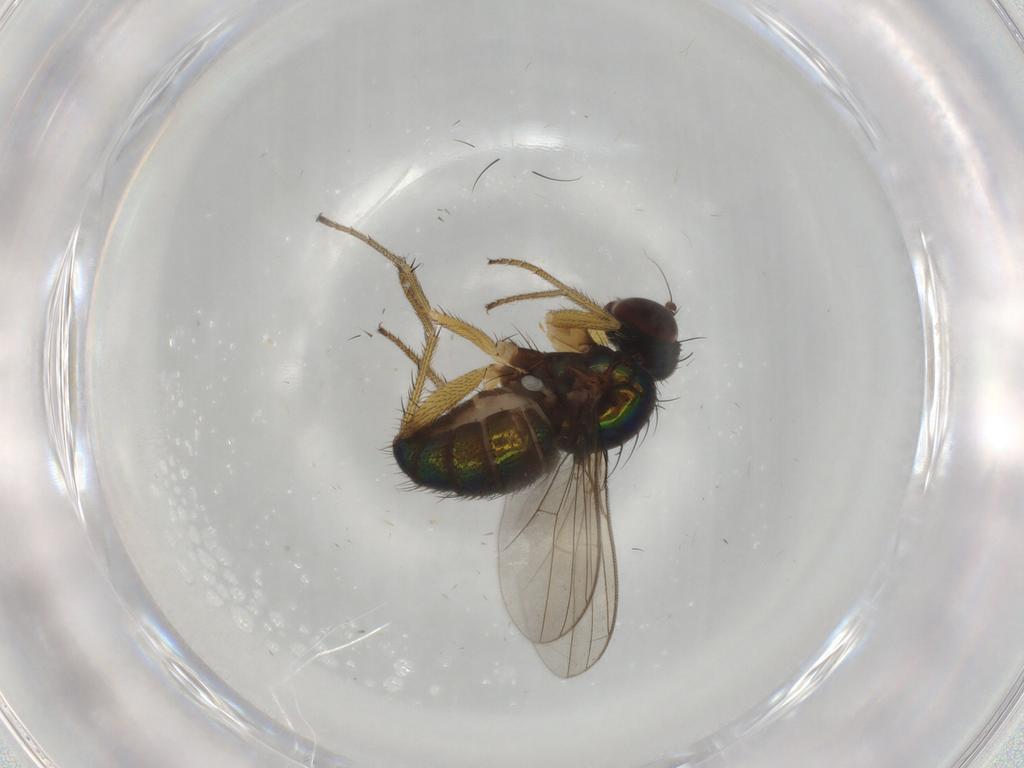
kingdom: Animalia
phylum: Arthropoda
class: Insecta
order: Diptera
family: Dolichopodidae
